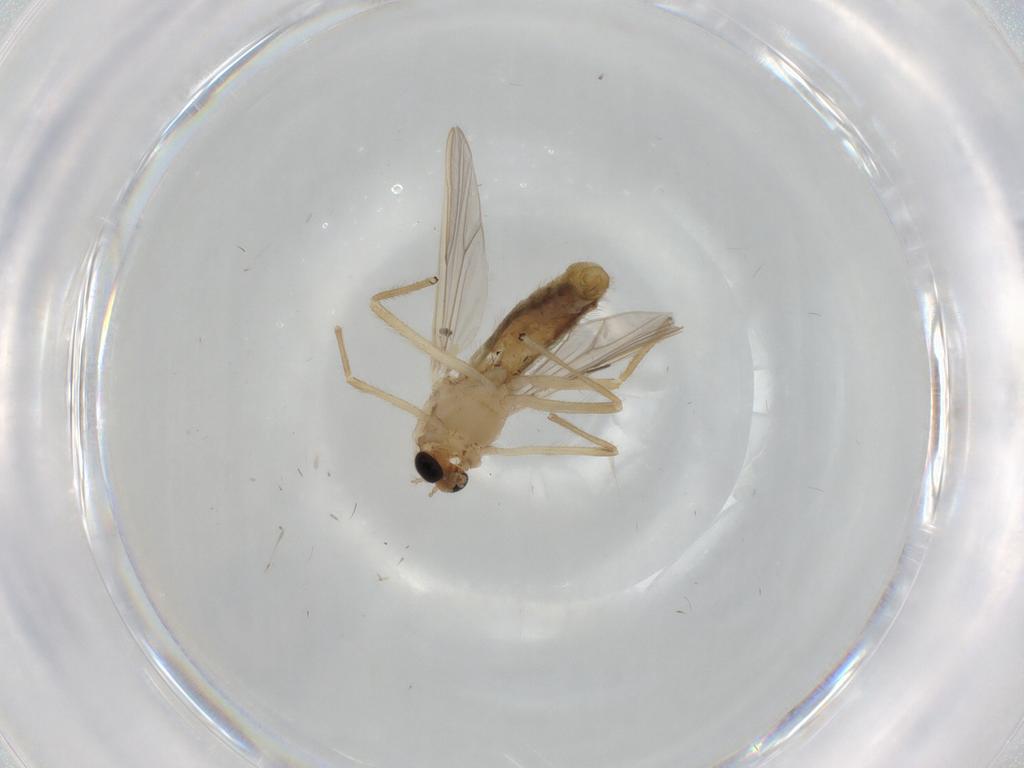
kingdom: Animalia
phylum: Arthropoda
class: Insecta
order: Diptera
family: Chironomidae
